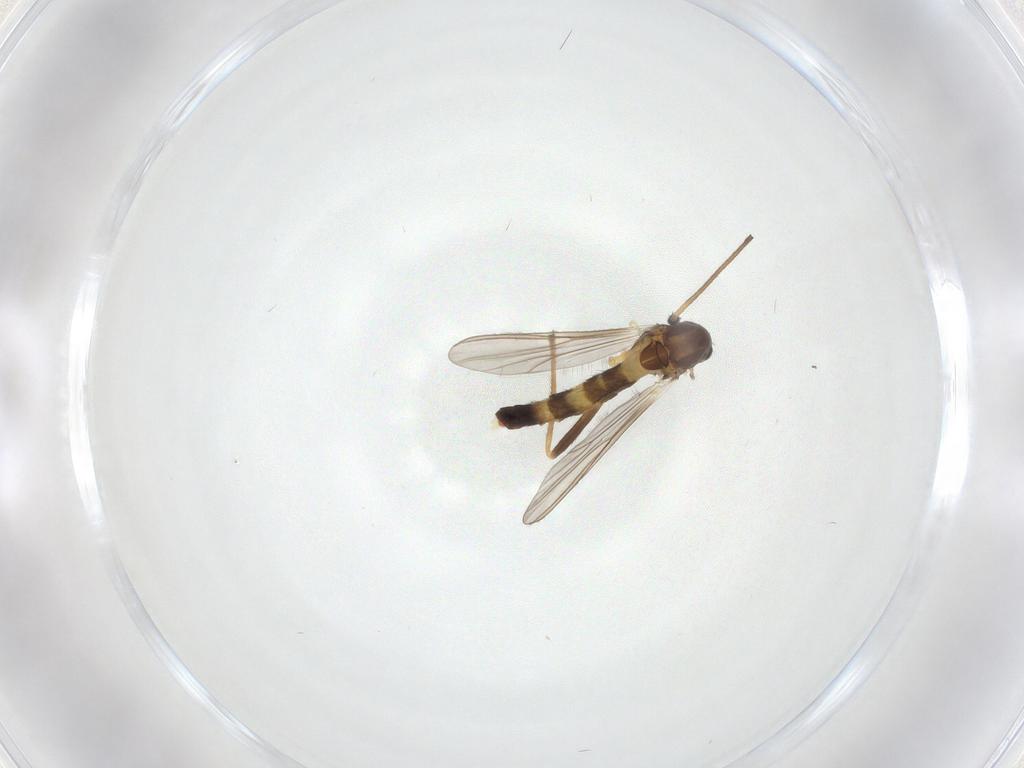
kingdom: Animalia
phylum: Arthropoda
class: Insecta
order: Diptera
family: Chironomidae
